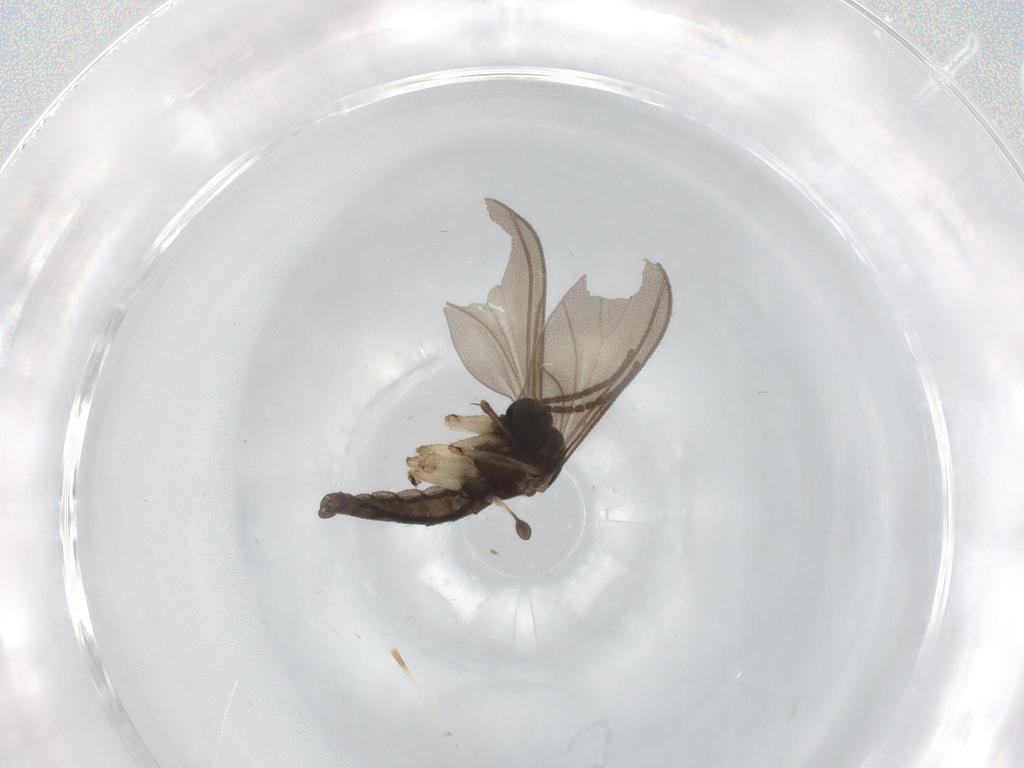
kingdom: Animalia
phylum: Arthropoda
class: Insecta
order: Diptera
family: Sciaridae
